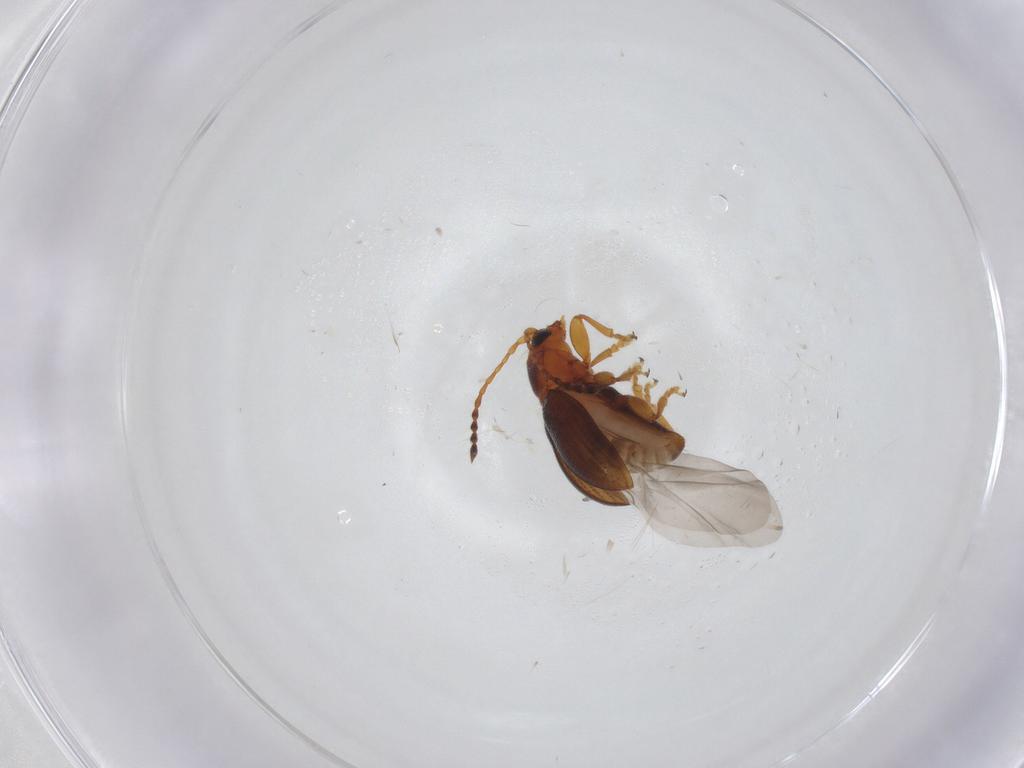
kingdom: Animalia
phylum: Arthropoda
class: Insecta
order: Coleoptera
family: Chrysomelidae
